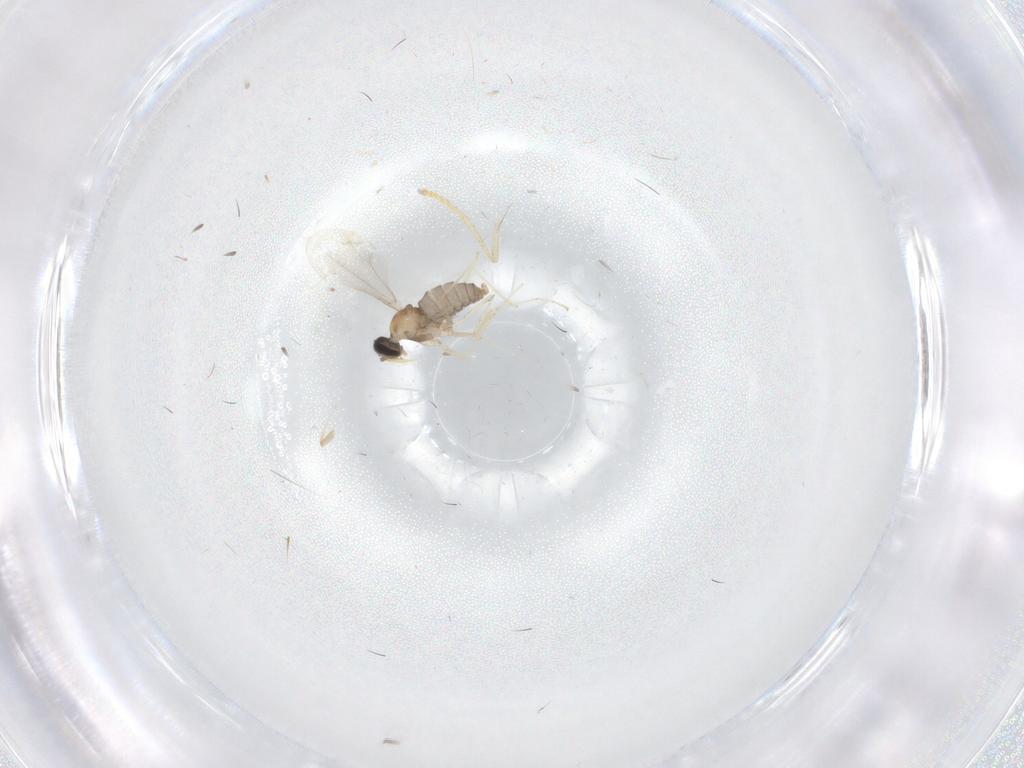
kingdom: Animalia
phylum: Arthropoda
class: Insecta
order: Diptera
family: Psychodidae
